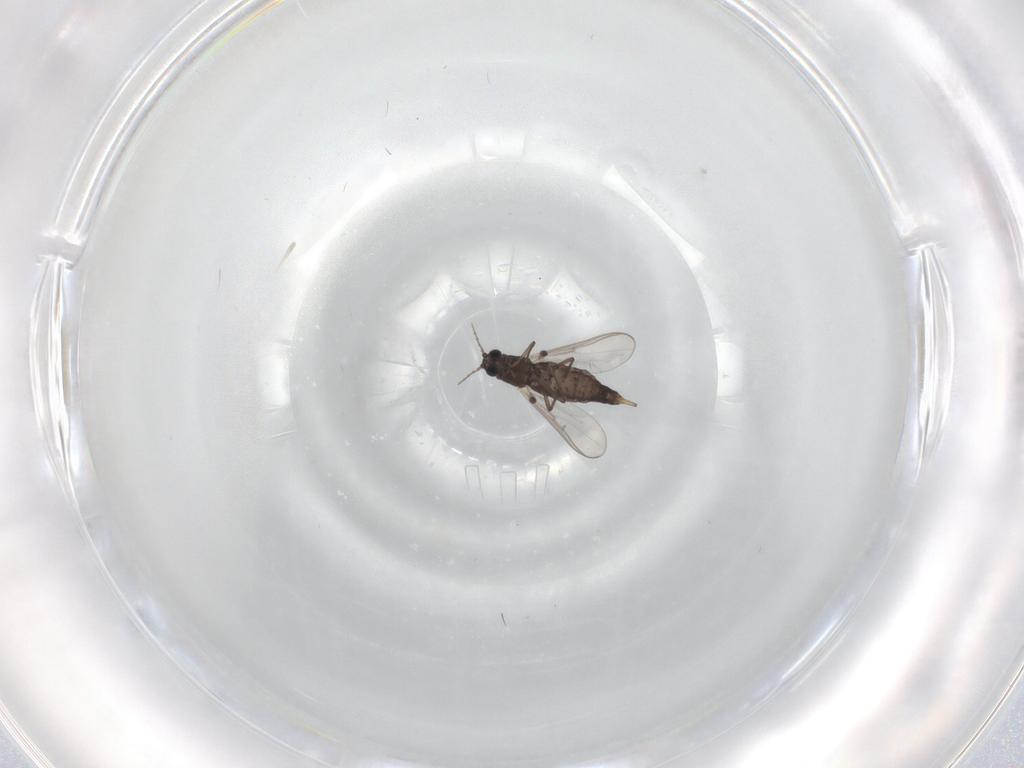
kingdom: Animalia
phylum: Arthropoda
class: Insecta
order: Diptera
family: Chironomidae
